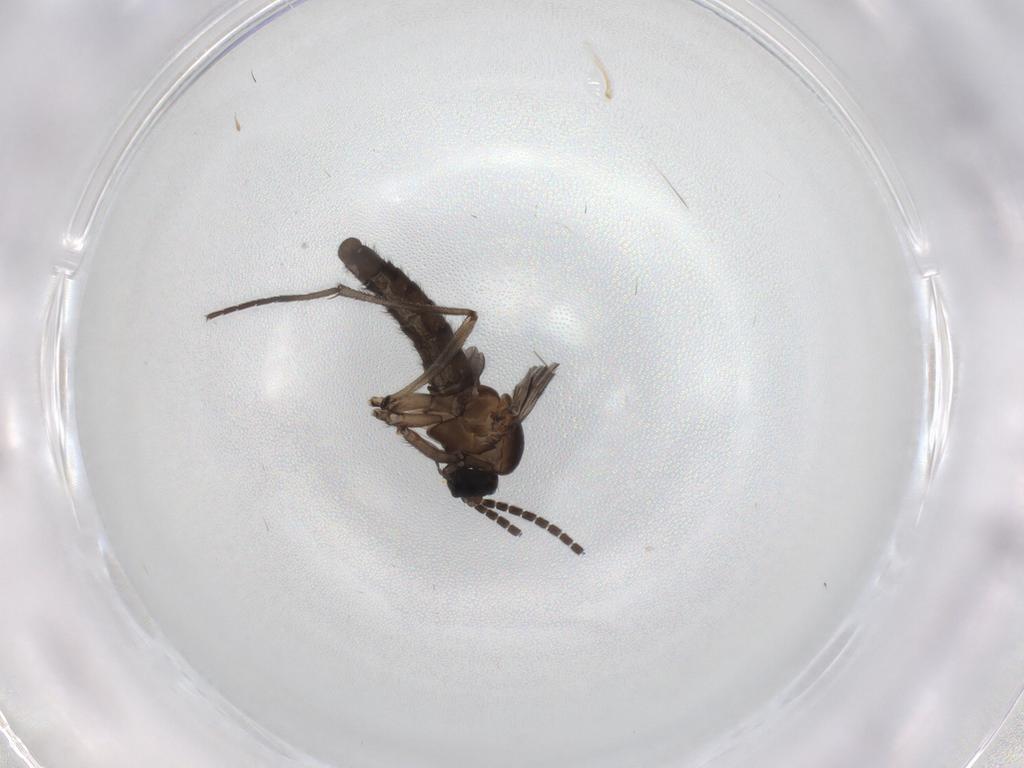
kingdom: Animalia
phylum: Arthropoda
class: Insecta
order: Diptera
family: Sciaridae
